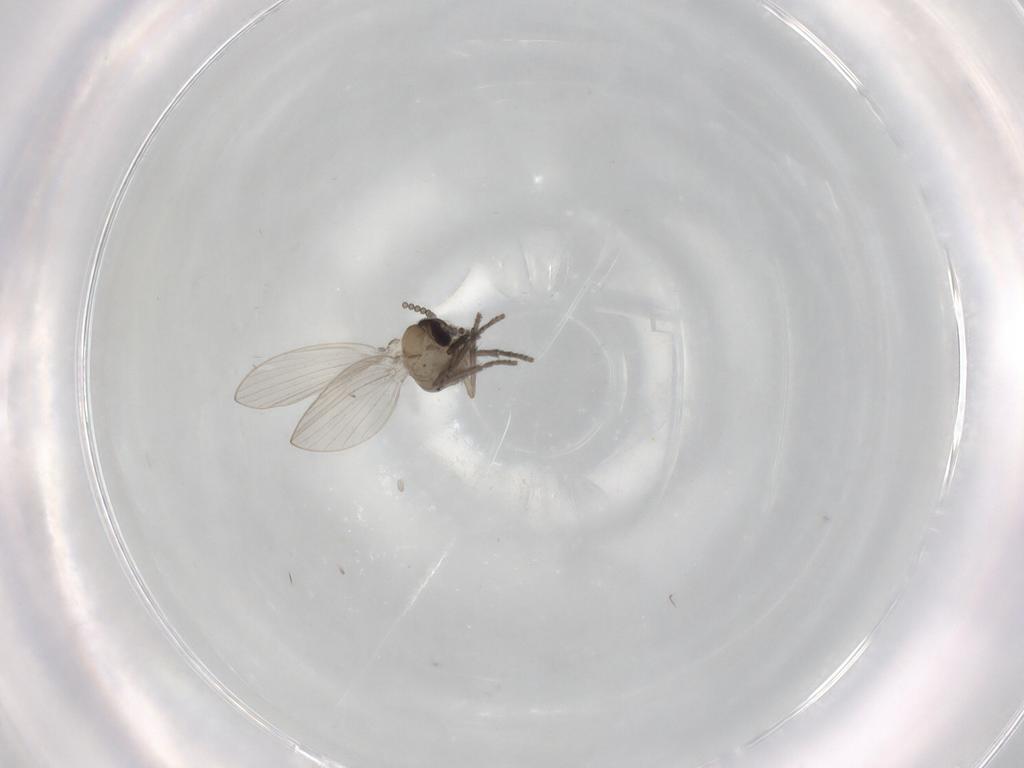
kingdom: Animalia
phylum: Arthropoda
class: Insecta
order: Diptera
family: Psychodidae
